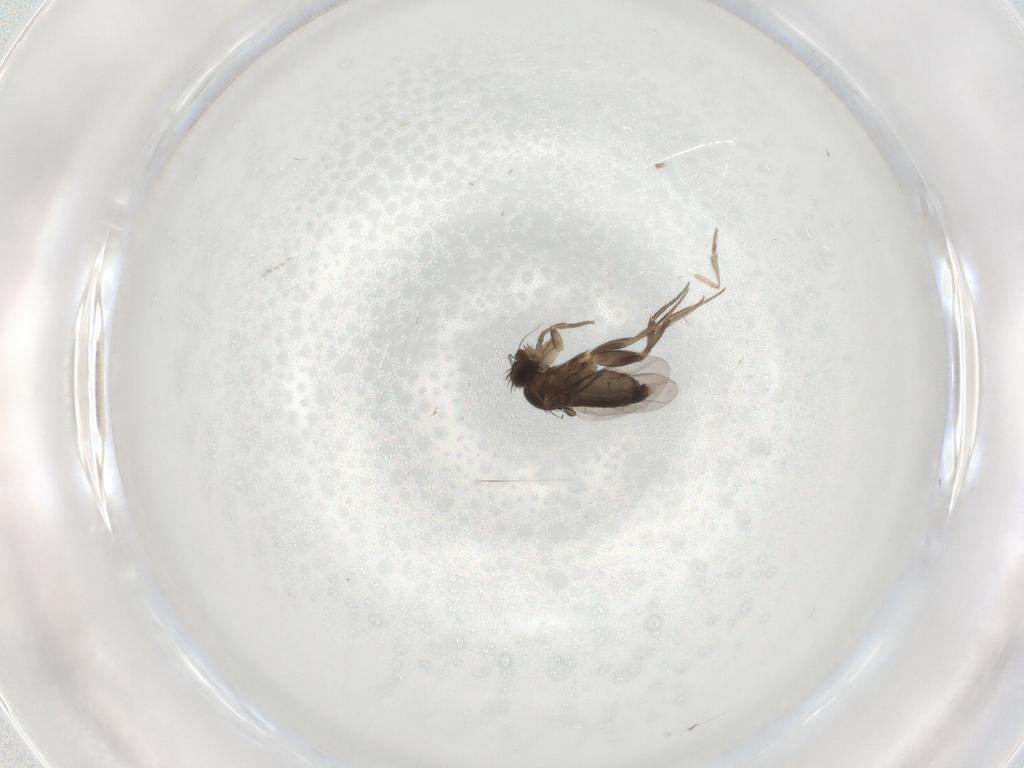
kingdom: Animalia
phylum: Arthropoda
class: Insecta
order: Diptera
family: Phoridae
